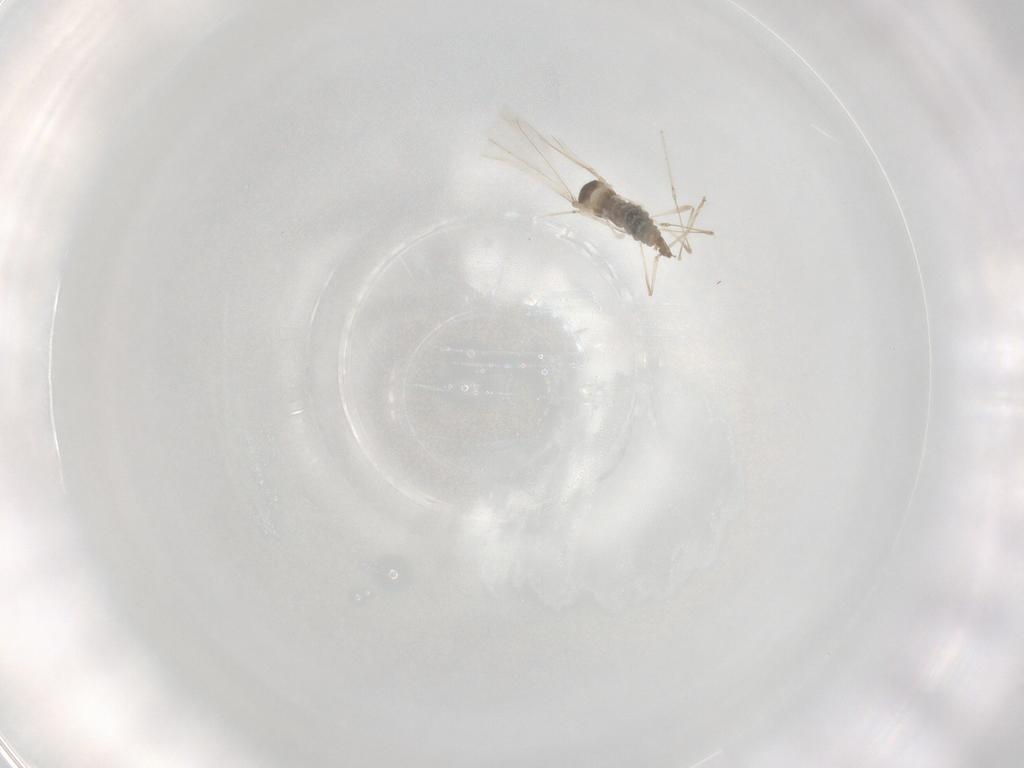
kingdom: Animalia
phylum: Arthropoda
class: Insecta
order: Diptera
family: Cecidomyiidae
